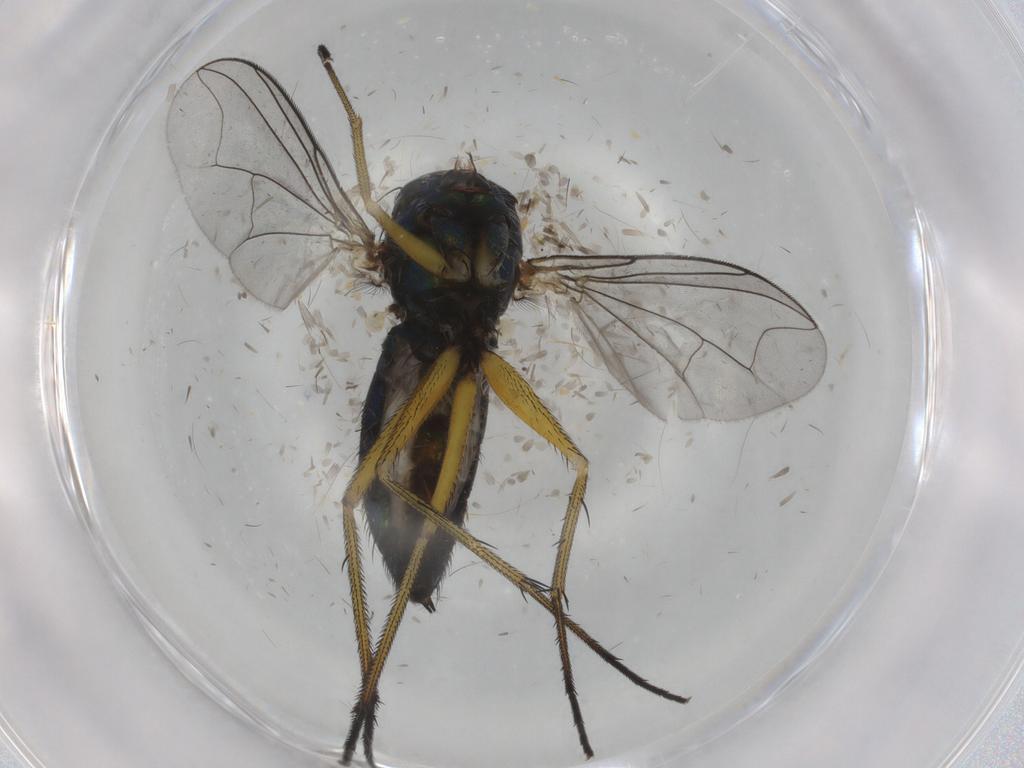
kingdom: Animalia
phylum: Arthropoda
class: Insecta
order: Diptera
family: Dolichopodidae
